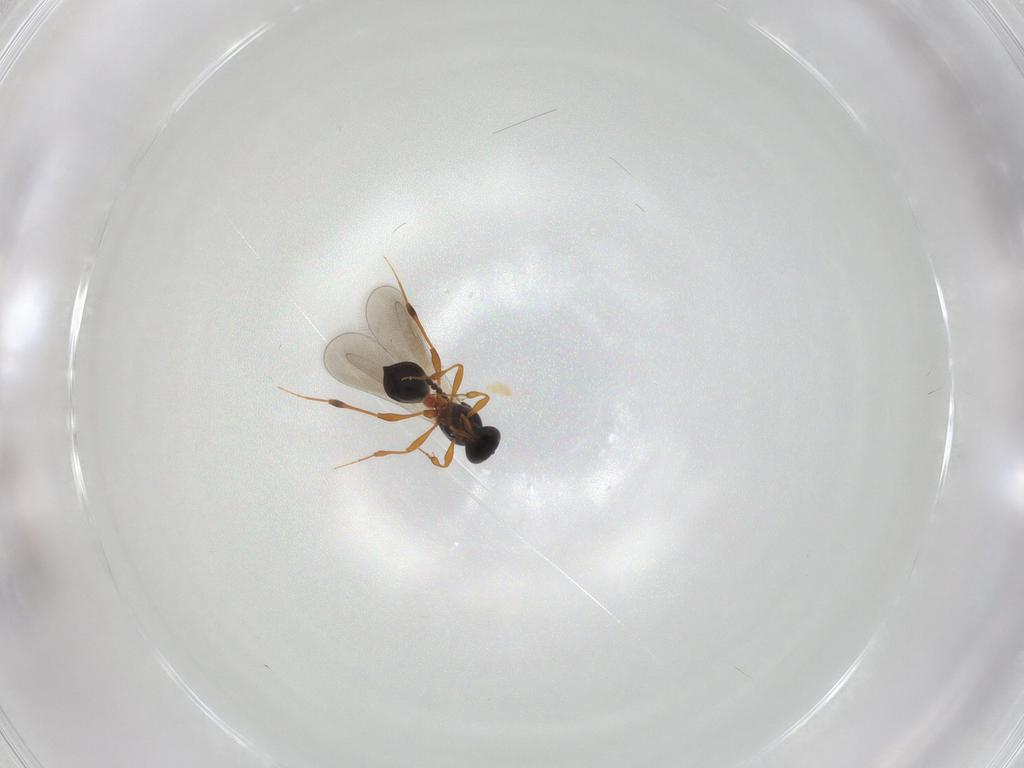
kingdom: Animalia
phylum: Arthropoda
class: Insecta
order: Hymenoptera
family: Platygastridae
